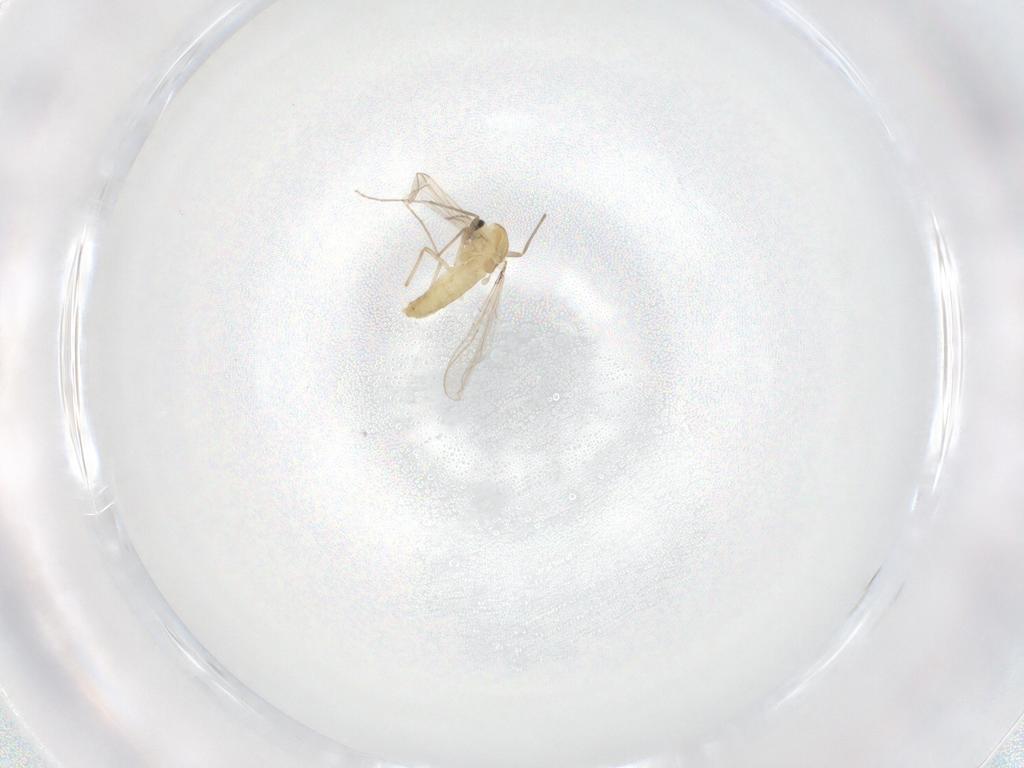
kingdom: Animalia
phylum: Arthropoda
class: Insecta
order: Diptera
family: Chironomidae
